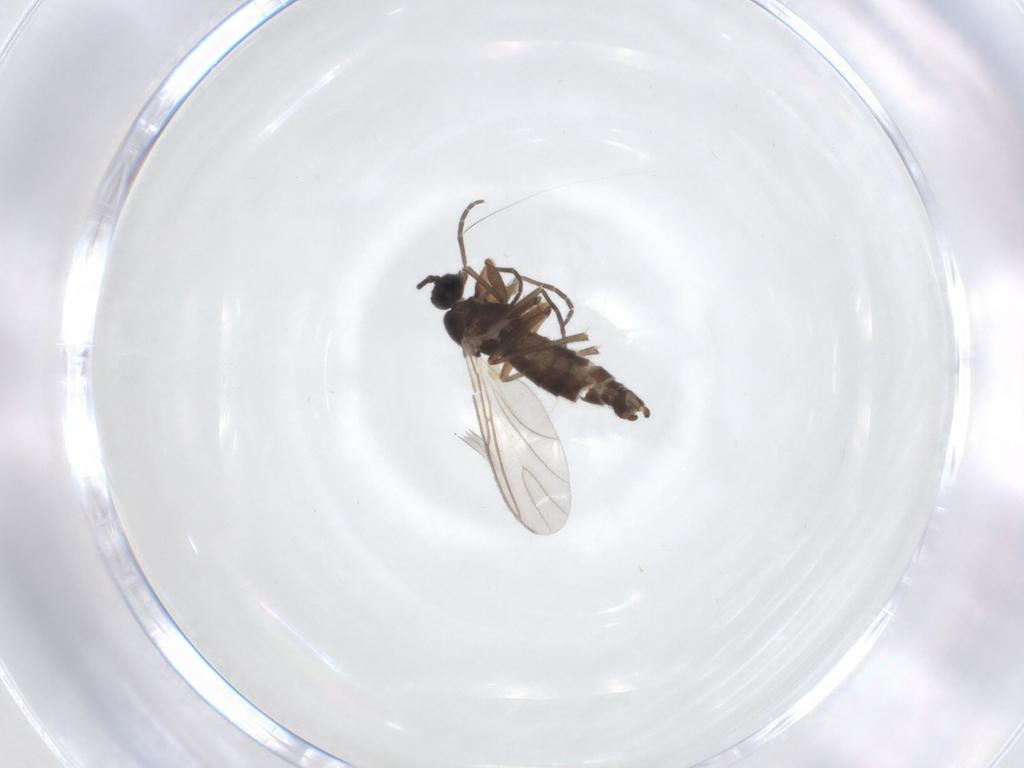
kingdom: Animalia
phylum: Arthropoda
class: Insecta
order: Diptera
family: Sciaridae
